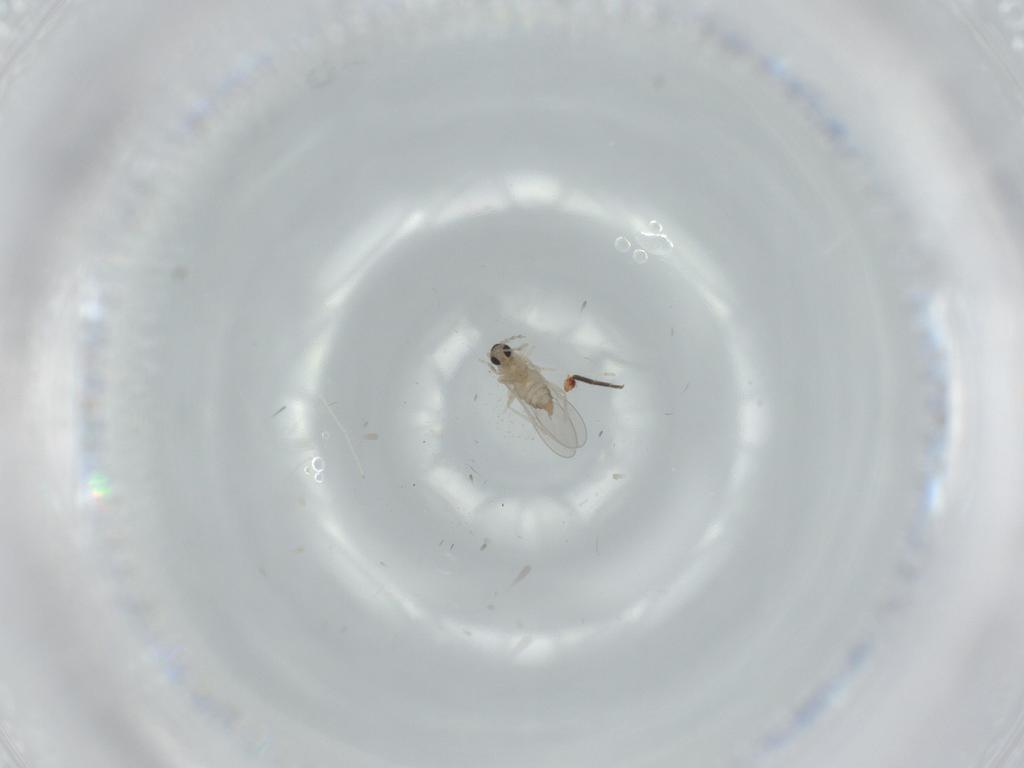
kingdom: Animalia
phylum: Arthropoda
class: Insecta
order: Diptera
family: Cecidomyiidae
